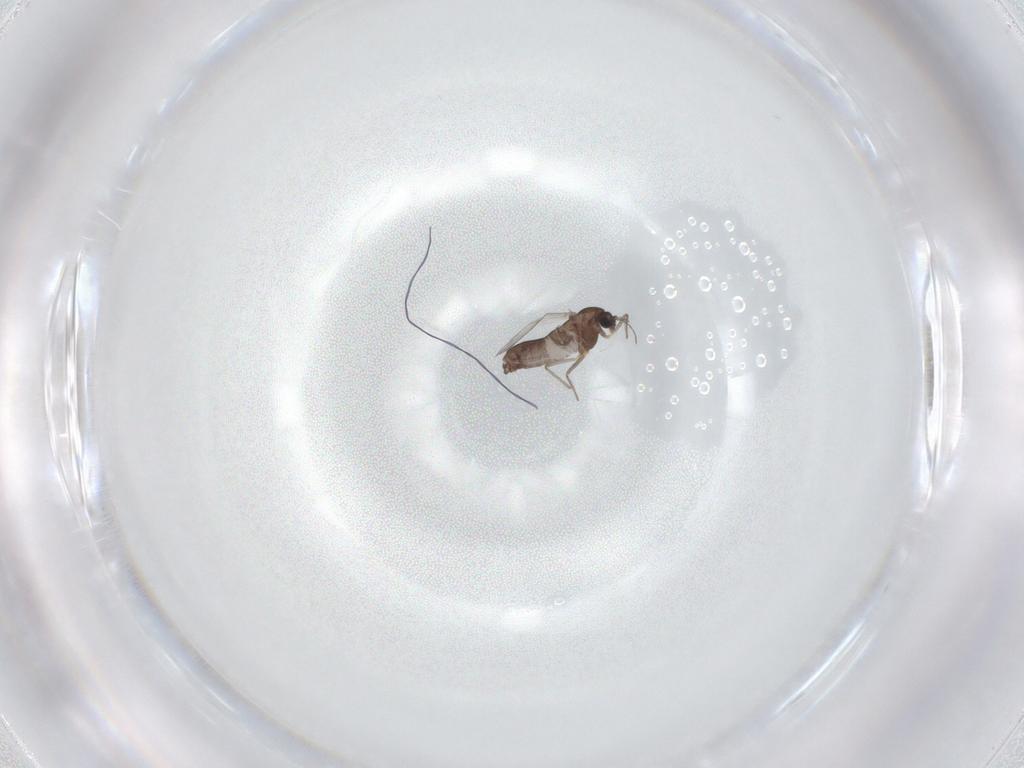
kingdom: Animalia
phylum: Arthropoda
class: Insecta
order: Diptera
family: Chironomidae
